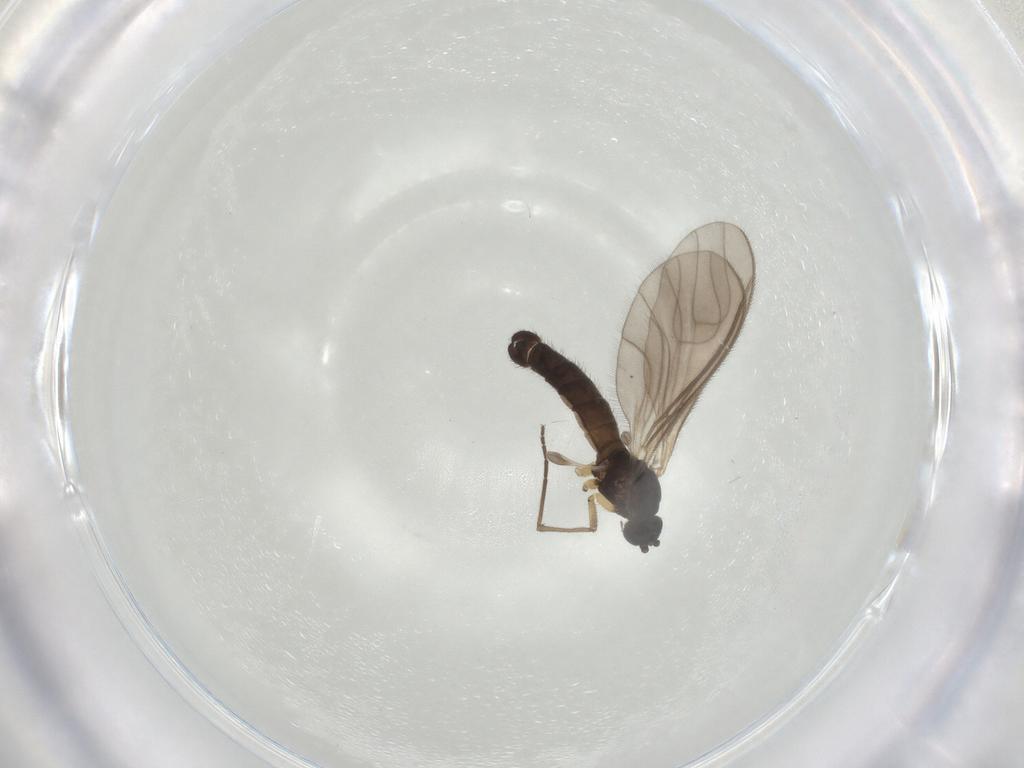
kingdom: Animalia
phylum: Arthropoda
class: Insecta
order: Diptera
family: Sciaridae
